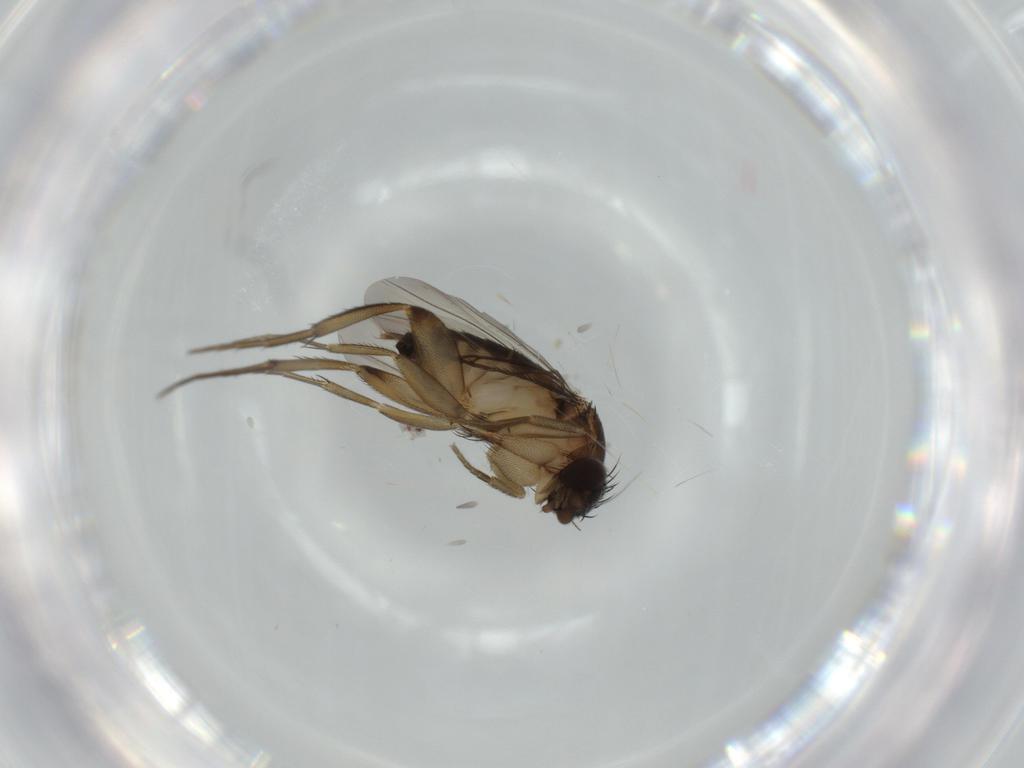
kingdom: Animalia
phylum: Arthropoda
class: Insecta
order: Diptera
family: Phoridae
